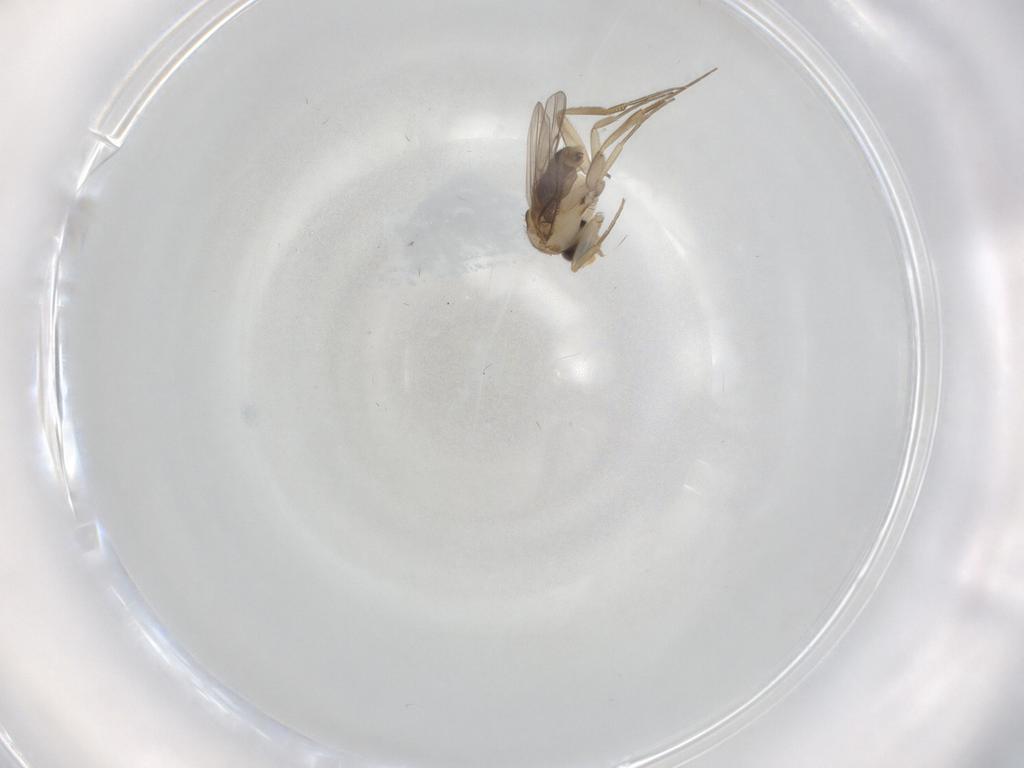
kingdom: Animalia
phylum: Arthropoda
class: Insecta
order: Diptera
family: Phoridae
